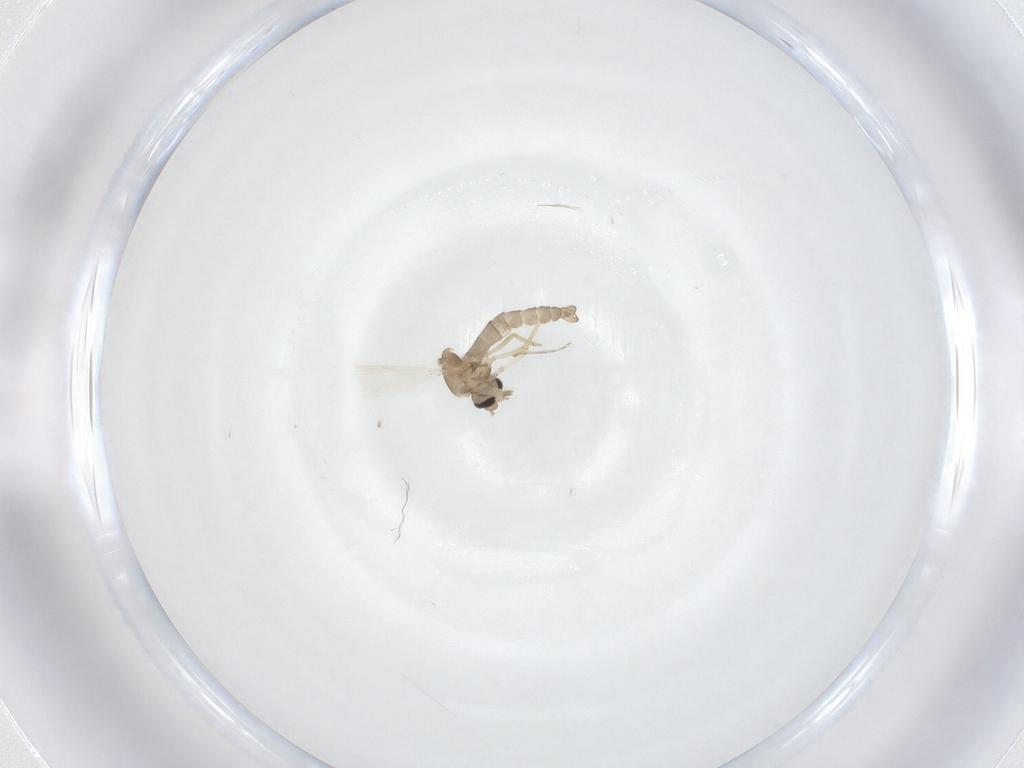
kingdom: Animalia
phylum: Arthropoda
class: Insecta
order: Diptera
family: Ceratopogonidae
